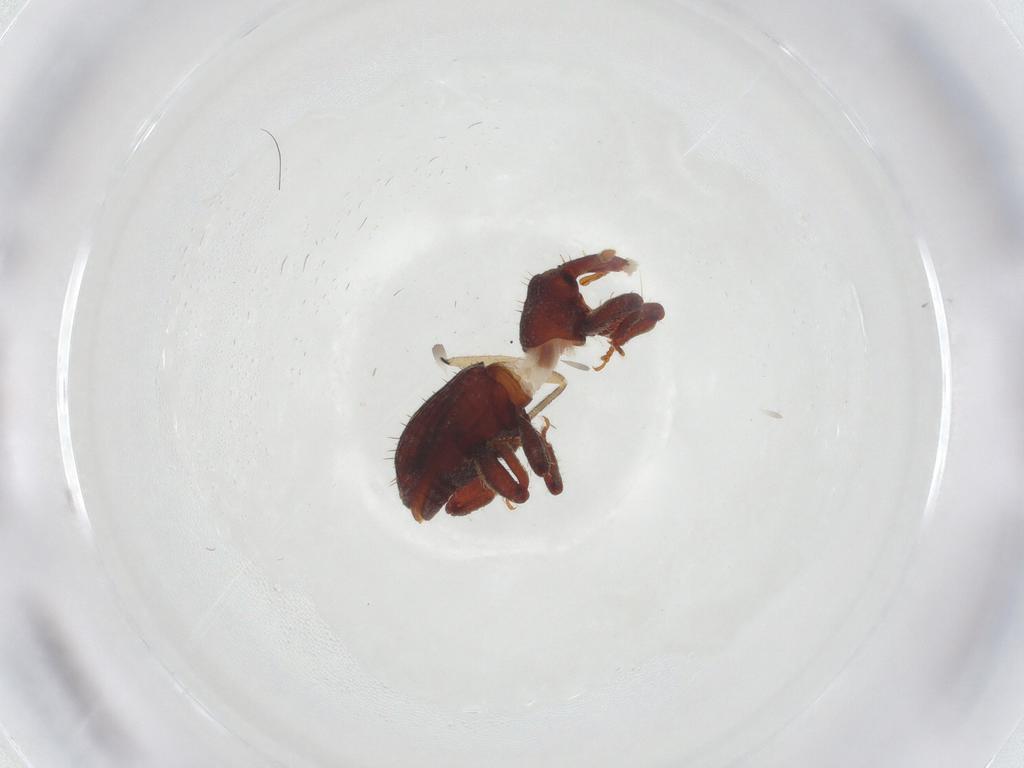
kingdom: Animalia
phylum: Arthropoda
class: Insecta
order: Coleoptera
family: Curculionidae
